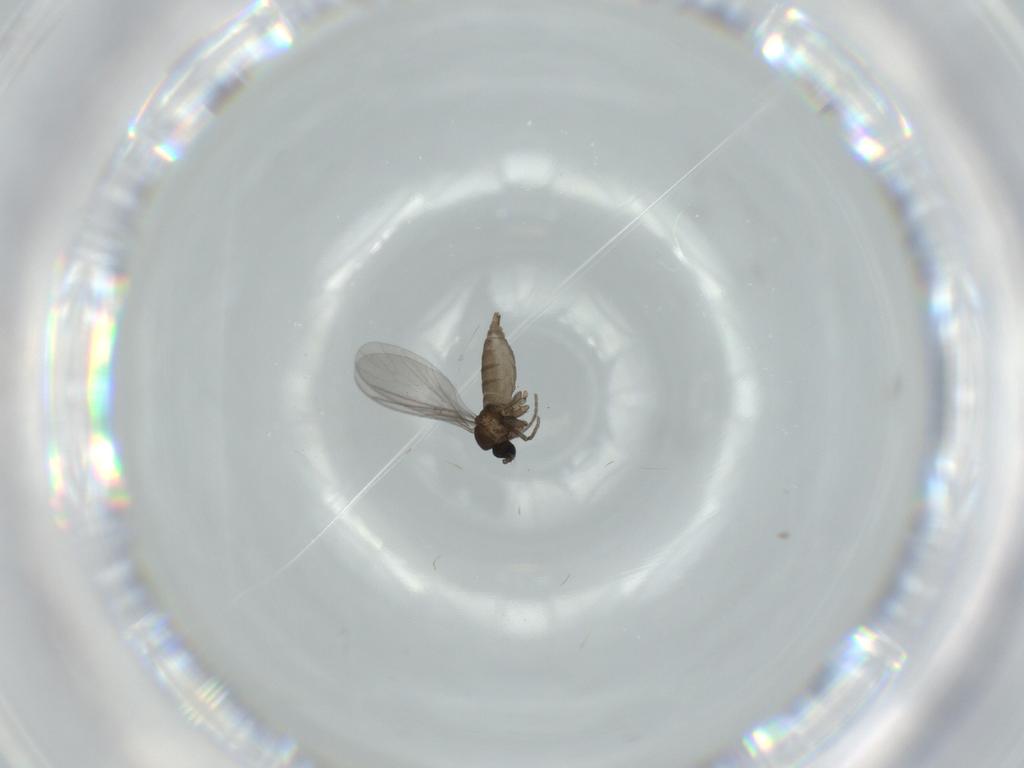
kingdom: Animalia
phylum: Arthropoda
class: Insecta
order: Diptera
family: Sciaridae
